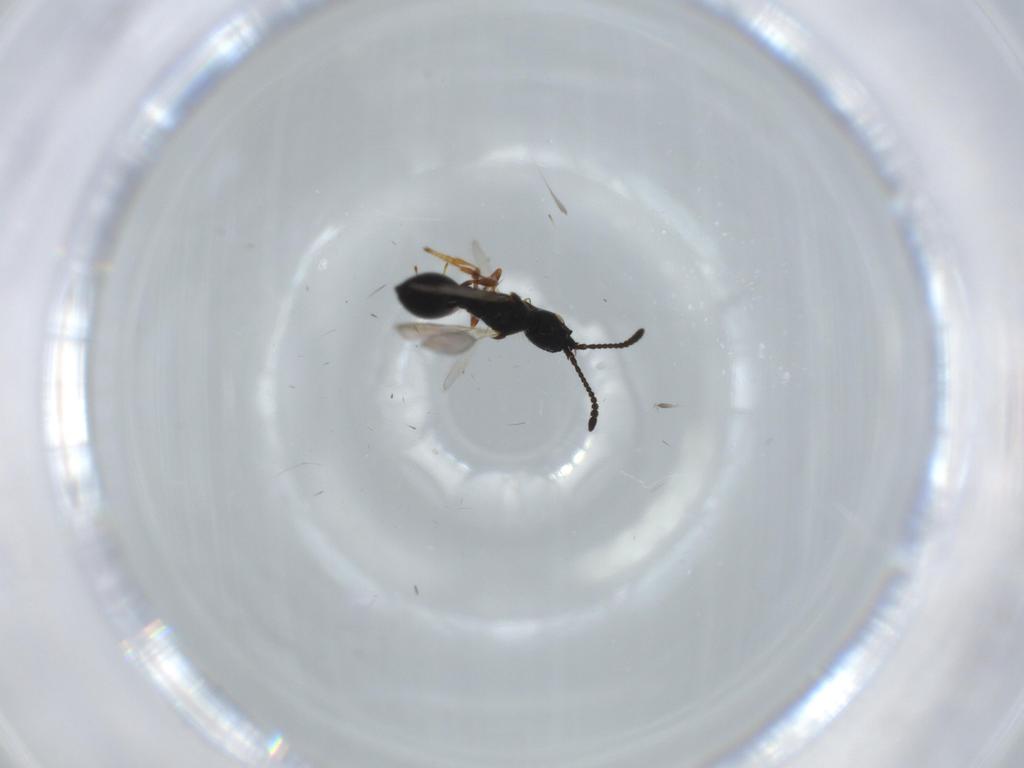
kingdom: Animalia
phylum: Arthropoda
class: Insecta
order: Hymenoptera
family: Diapriidae
